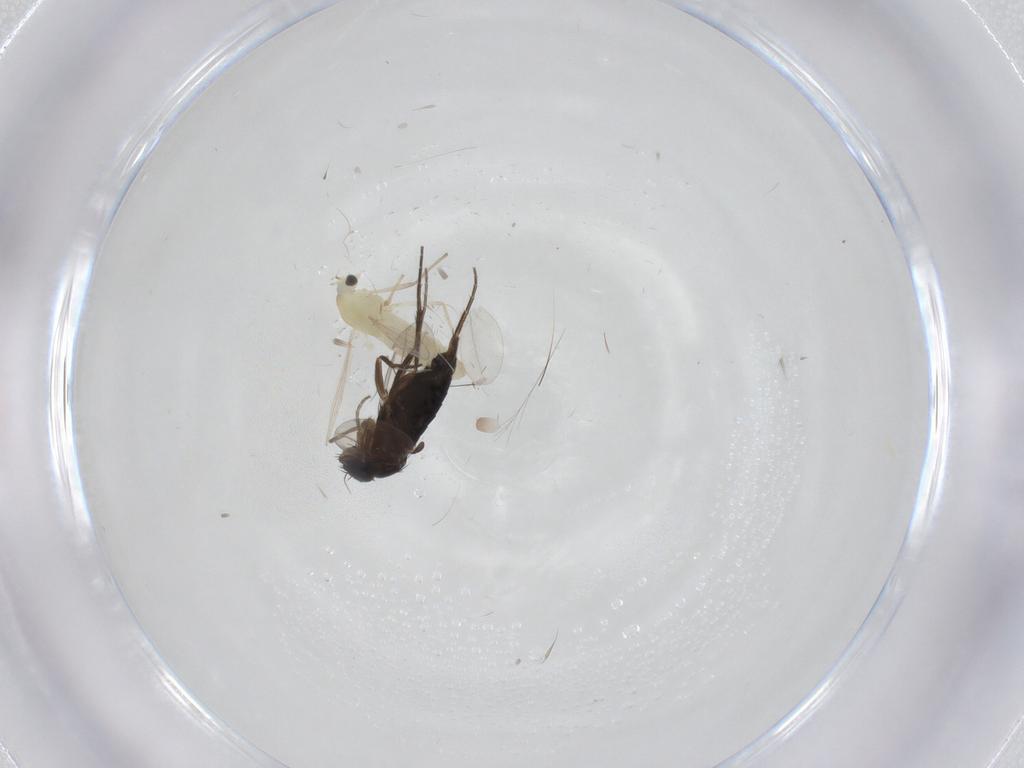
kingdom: Animalia
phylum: Arthropoda
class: Insecta
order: Diptera
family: Chironomidae
